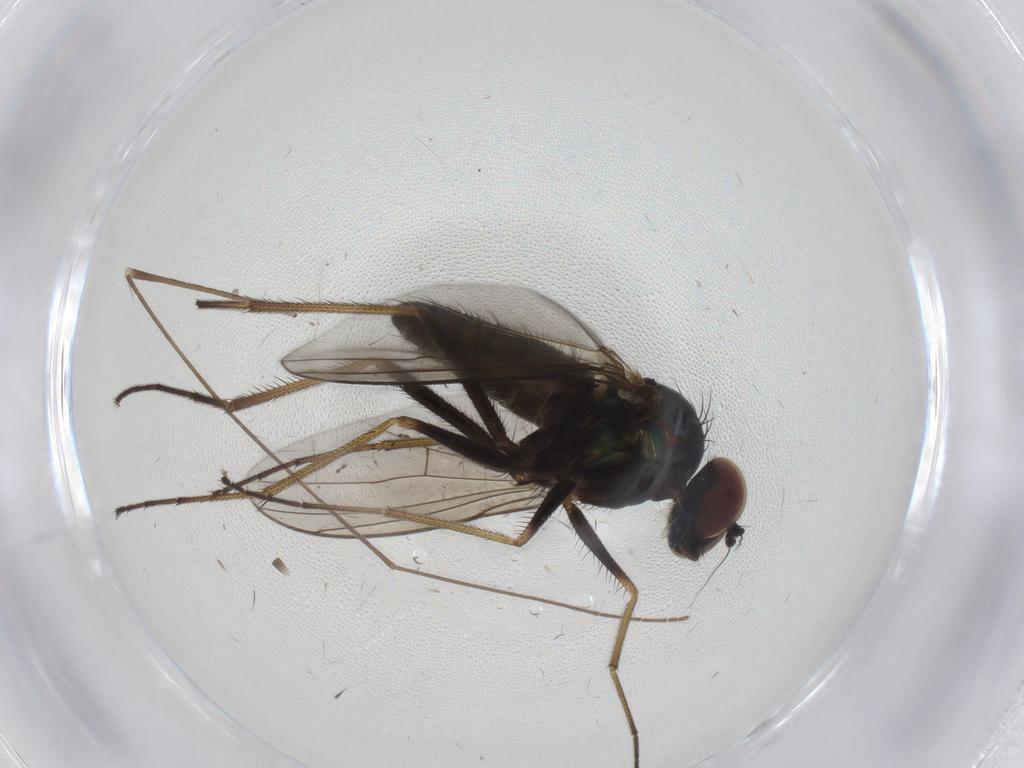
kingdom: Animalia
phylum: Arthropoda
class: Insecta
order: Diptera
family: Dolichopodidae
